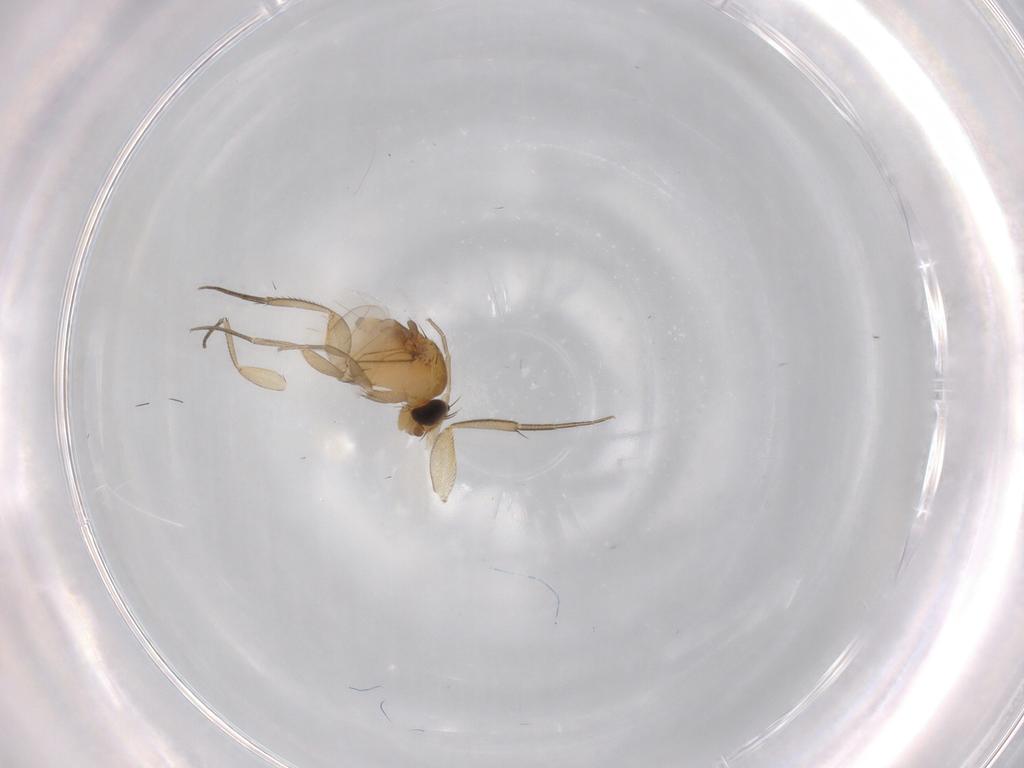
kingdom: Animalia
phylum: Arthropoda
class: Insecta
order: Diptera
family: Phoridae
